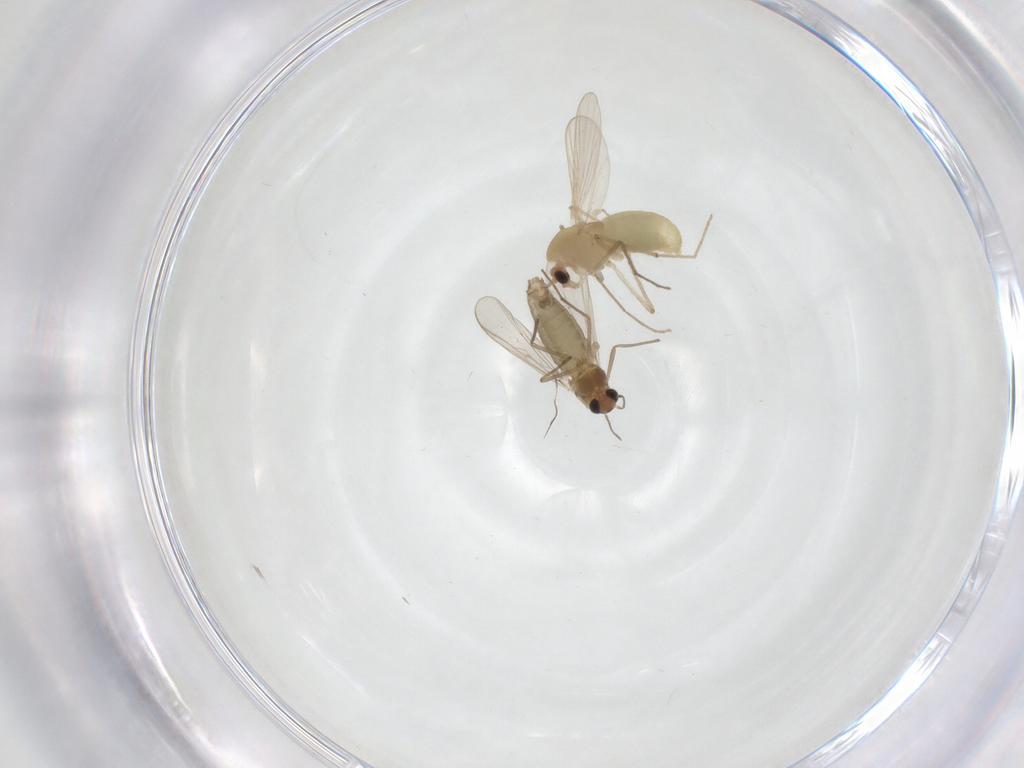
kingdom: Animalia
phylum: Arthropoda
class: Insecta
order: Diptera
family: Chironomidae
